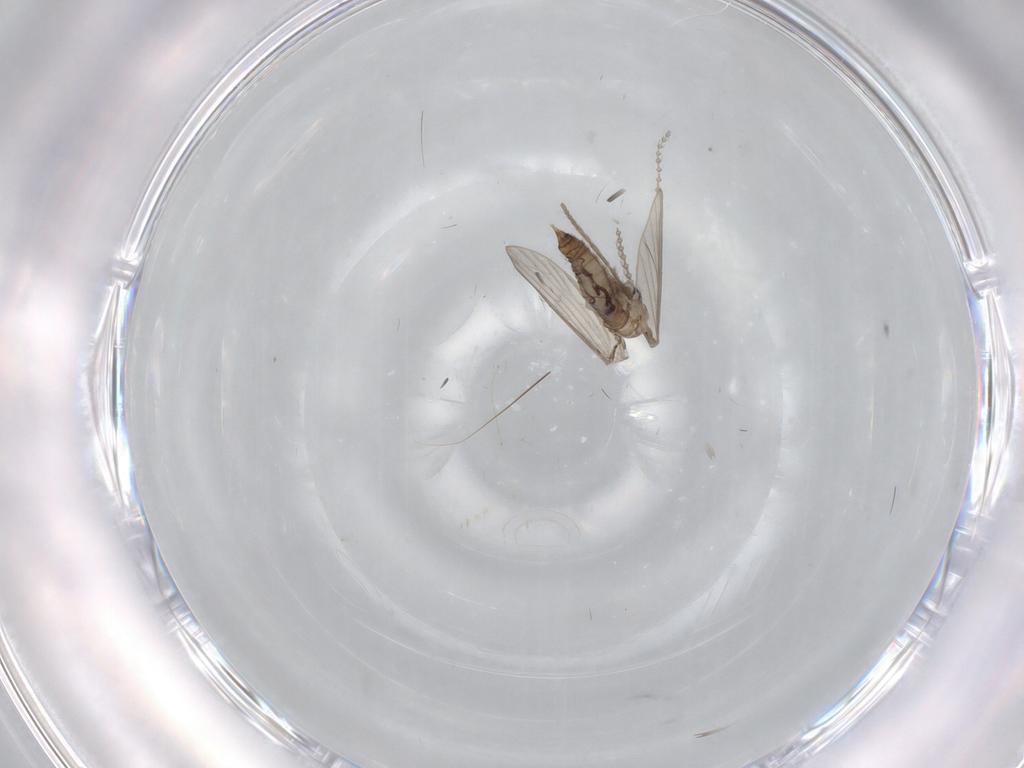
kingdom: Animalia
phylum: Arthropoda
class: Insecta
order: Diptera
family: Psychodidae
